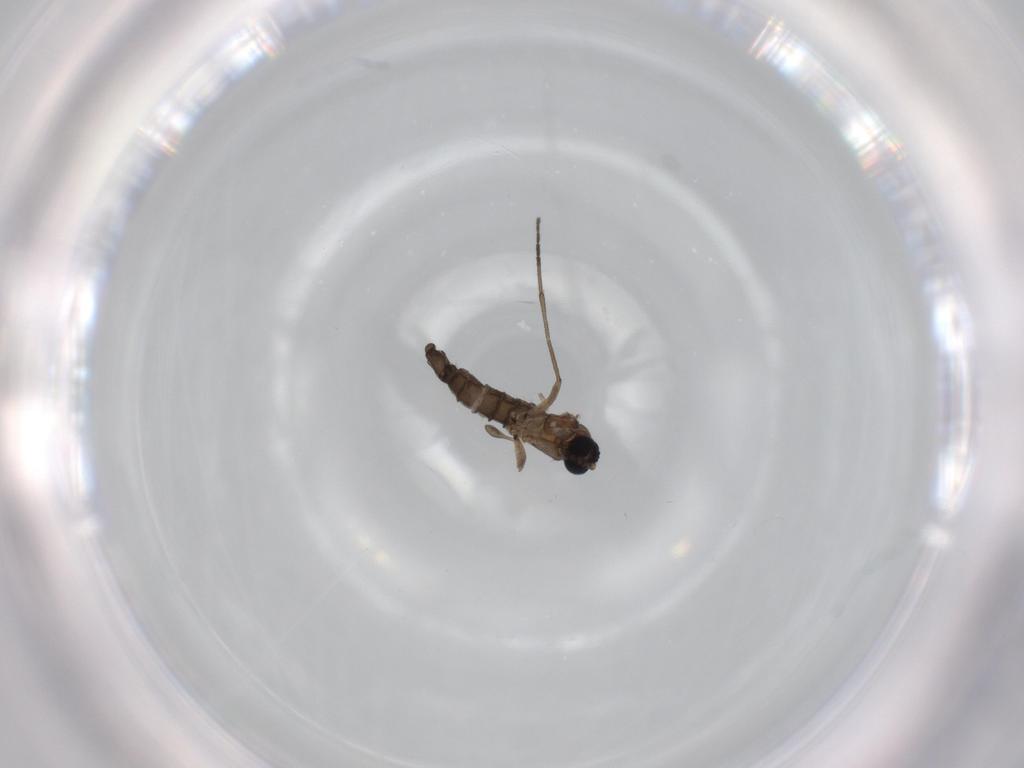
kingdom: Animalia
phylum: Arthropoda
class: Insecta
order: Diptera
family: Sciaridae
